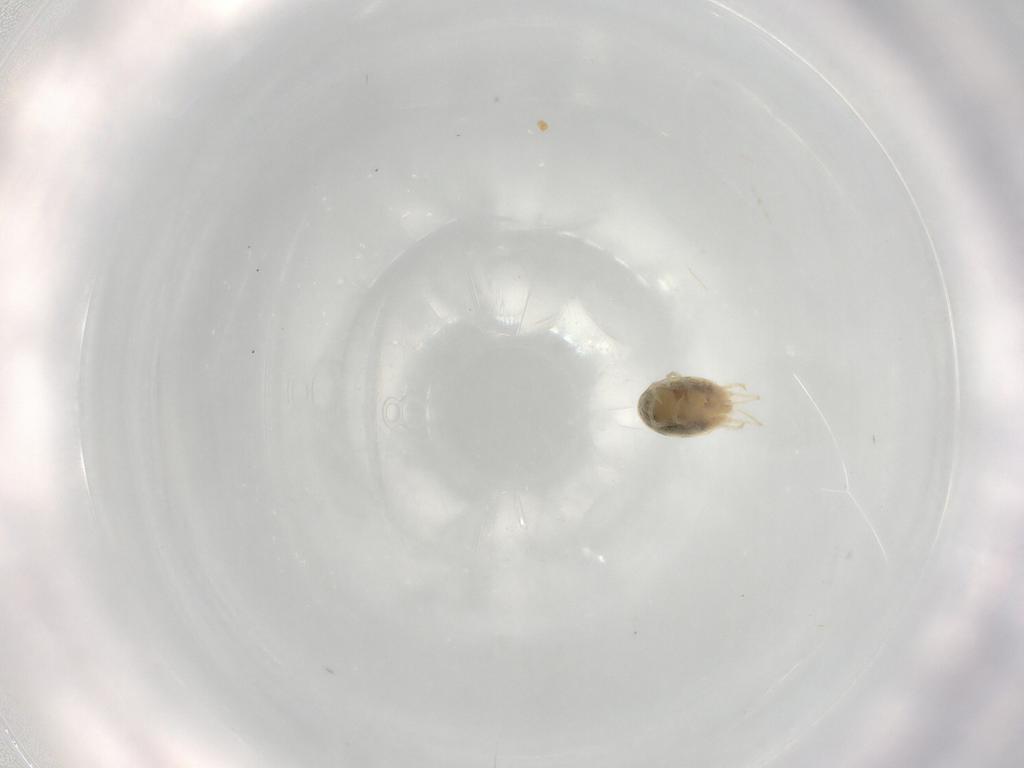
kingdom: Animalia
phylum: Arthropoda
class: Arachnida
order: Trombidiformes
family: Tetranychidae
